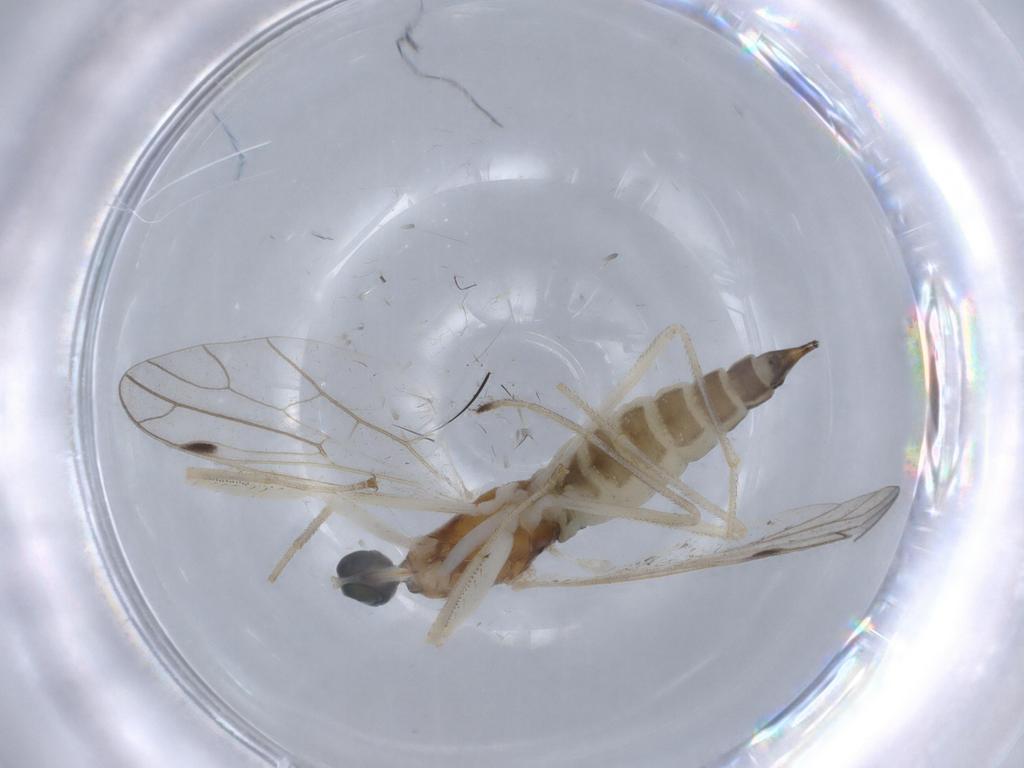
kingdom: Animalia
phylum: Arthropoda
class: Insecta
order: Diptera
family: Empididae
